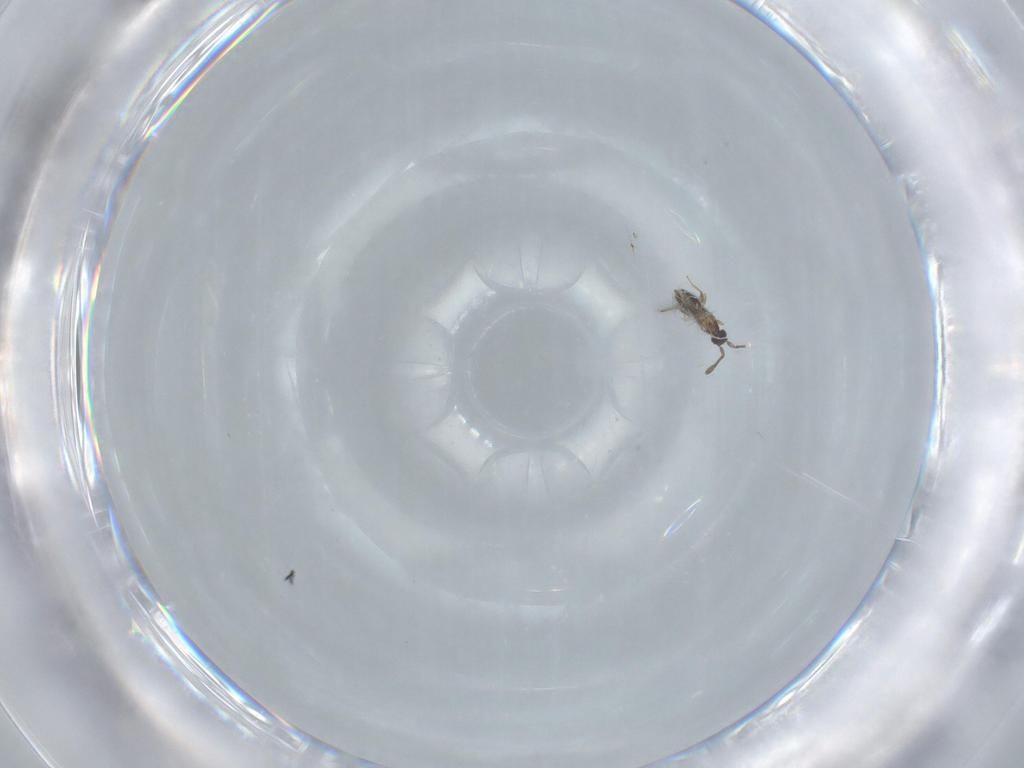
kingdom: Animalia
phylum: Arthropoda
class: Insecta
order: Hymenoptera
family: Mymaridae
